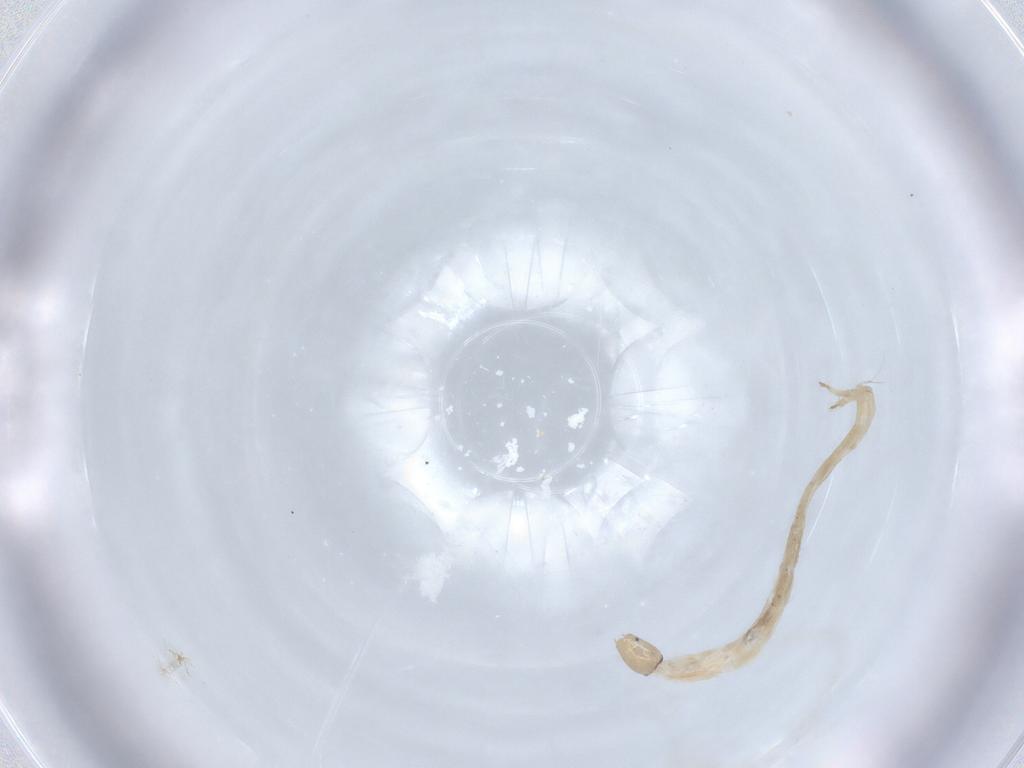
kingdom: Animalia
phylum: Arthropoda
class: Insecta
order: Diptera
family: Chironomidae
